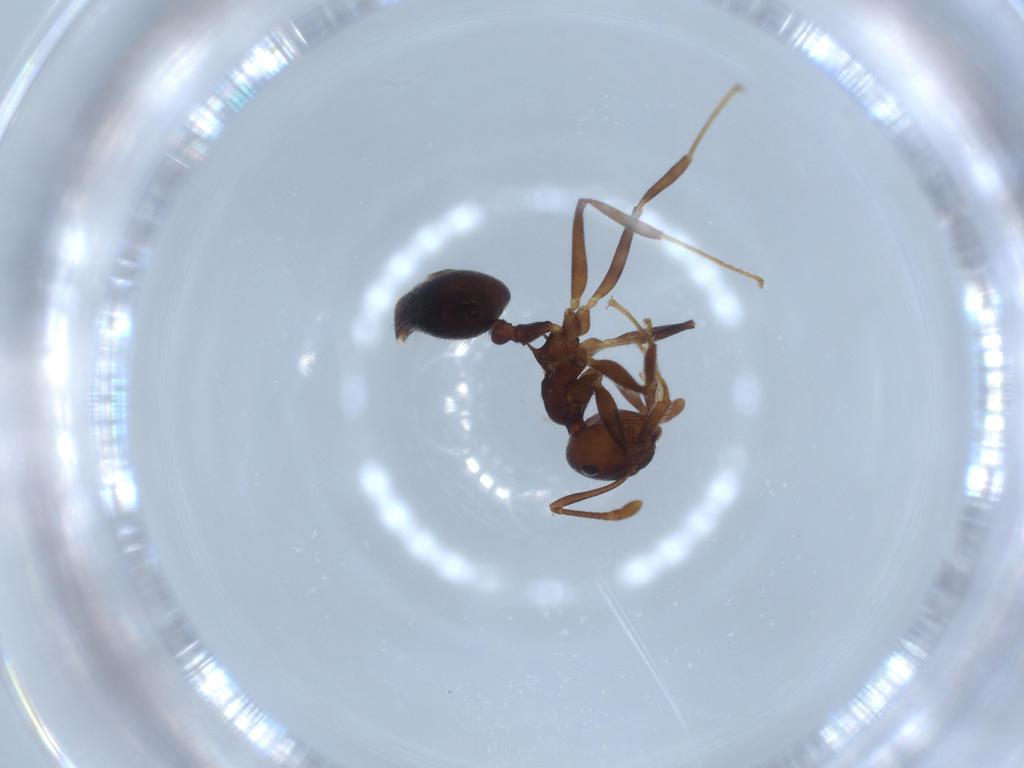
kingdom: Animalia
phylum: Arthropoda
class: Insecta
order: Hymenoptera
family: Formicidae
